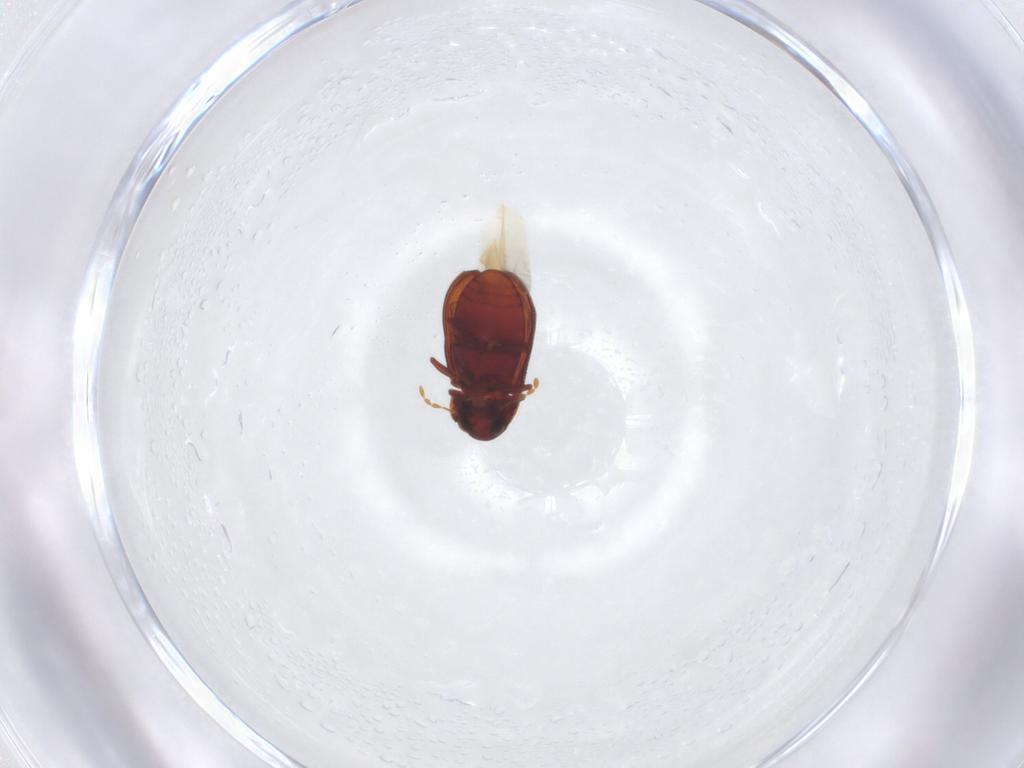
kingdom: Animalia
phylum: Arthropoda
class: Insecta
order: Coleoptera
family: Ptinidae
